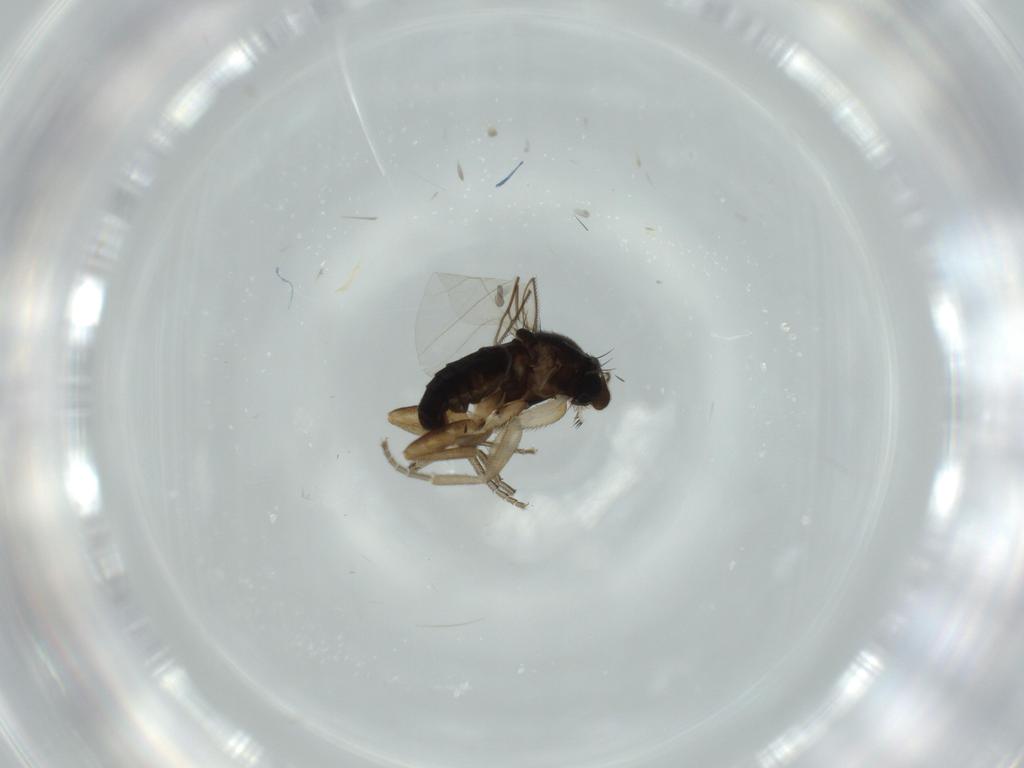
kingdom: Animalia
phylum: Arthropoda
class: Insecta
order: Diptera
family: Phoridae
